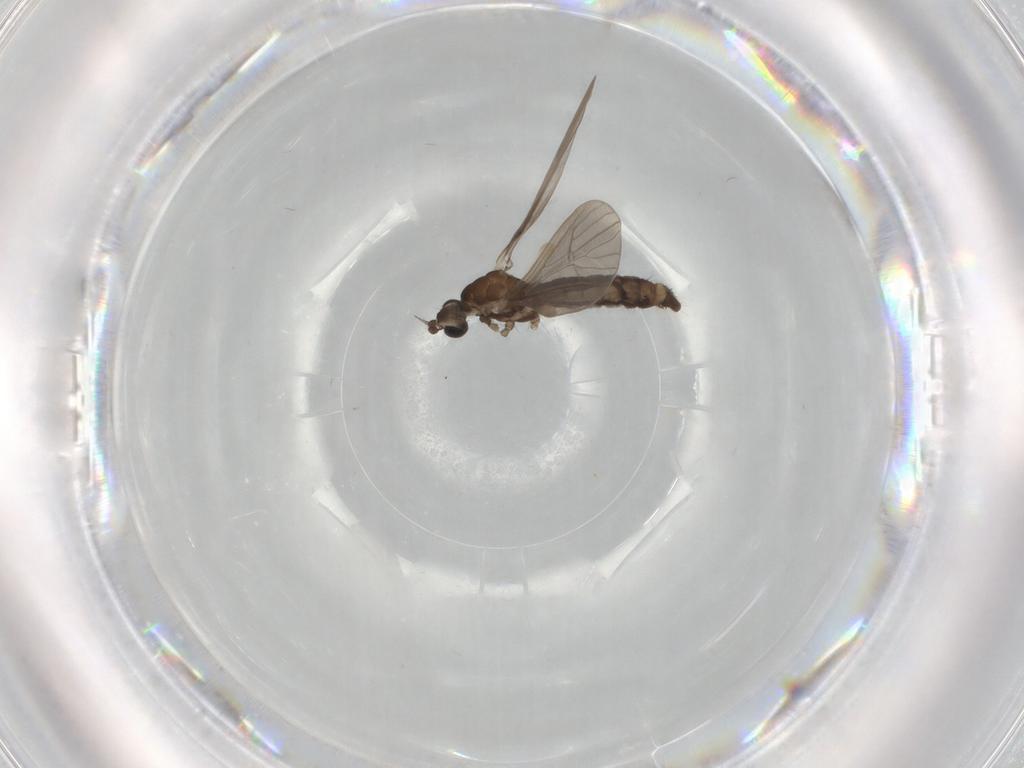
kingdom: Animalia
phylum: Arthropoda
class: Insecta
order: Diptera
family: Limoniidae
